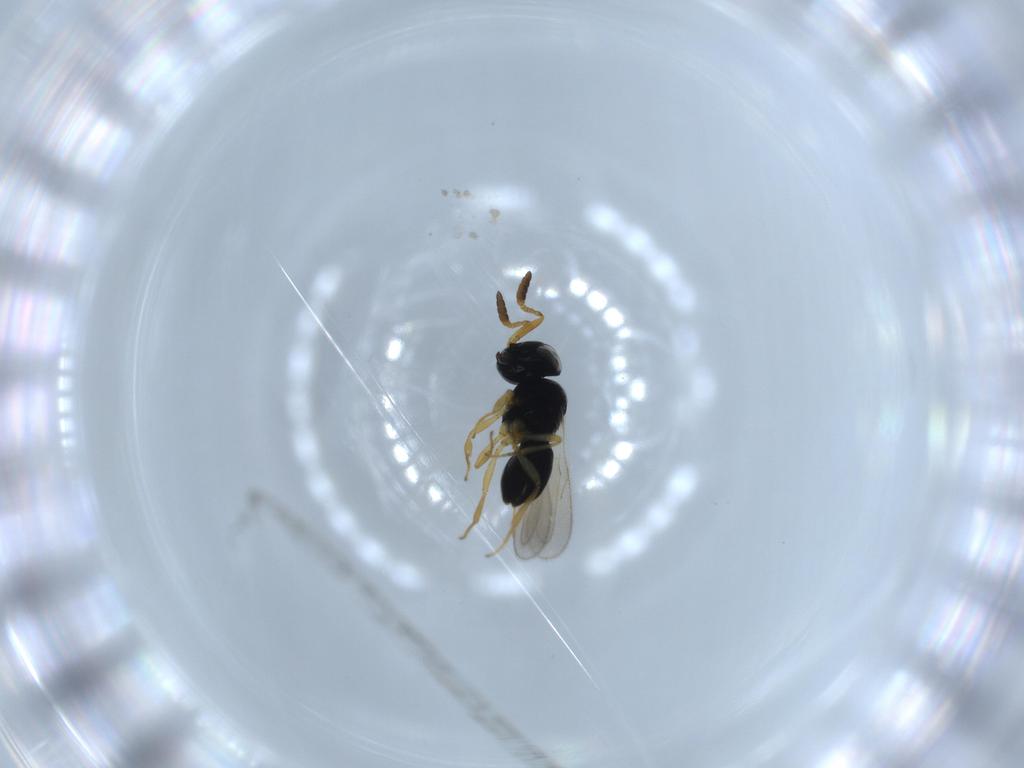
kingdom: Animalia
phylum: Arthropoda
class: Insecta
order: Hymenoptera
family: Scelionidae
